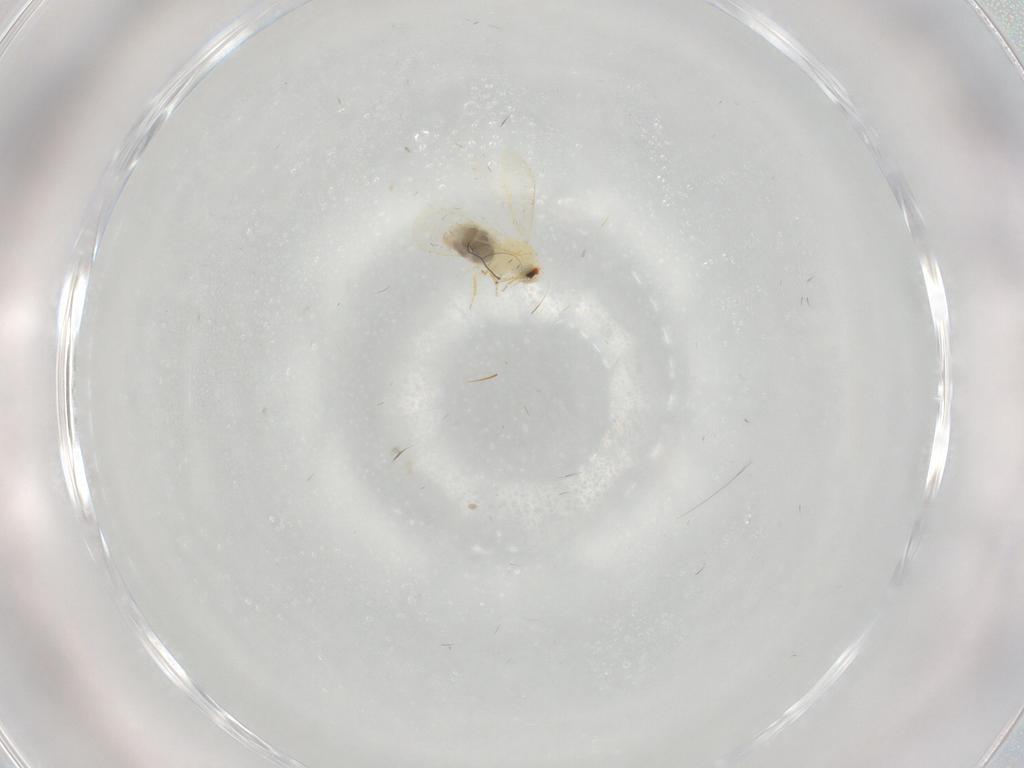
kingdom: Animalia
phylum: Arthropoda
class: Insecta
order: Hemiptera
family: Aleyrodidae
